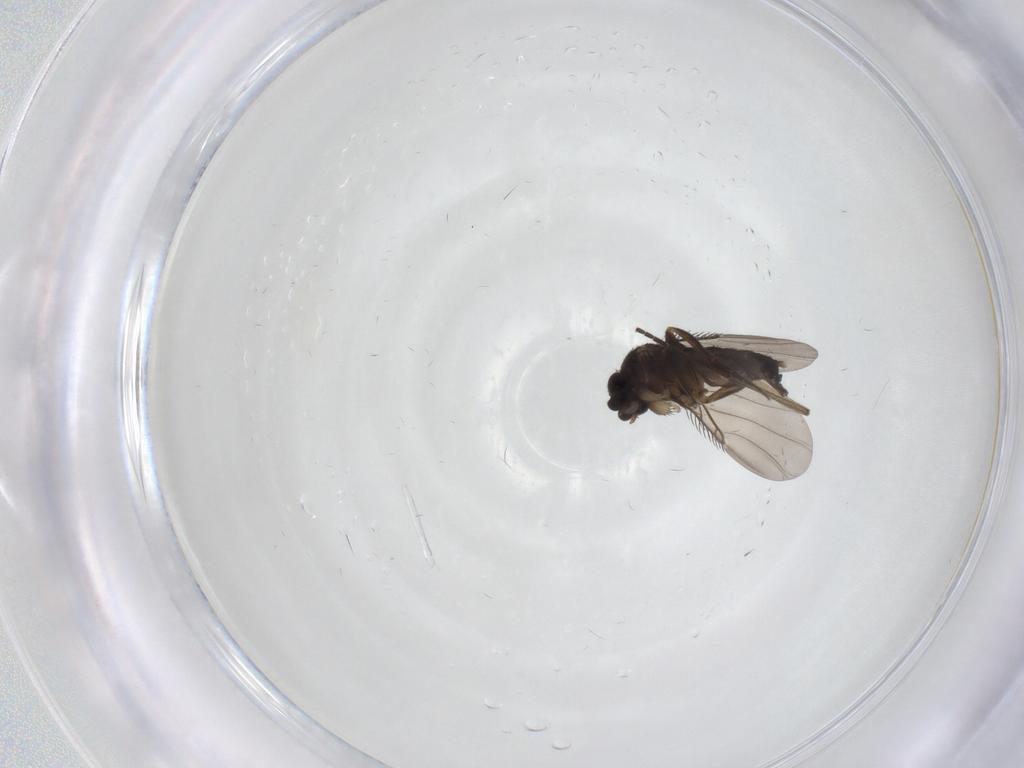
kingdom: Animalia
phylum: Arthropoda
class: Insecta
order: Diptera
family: Phoridae
